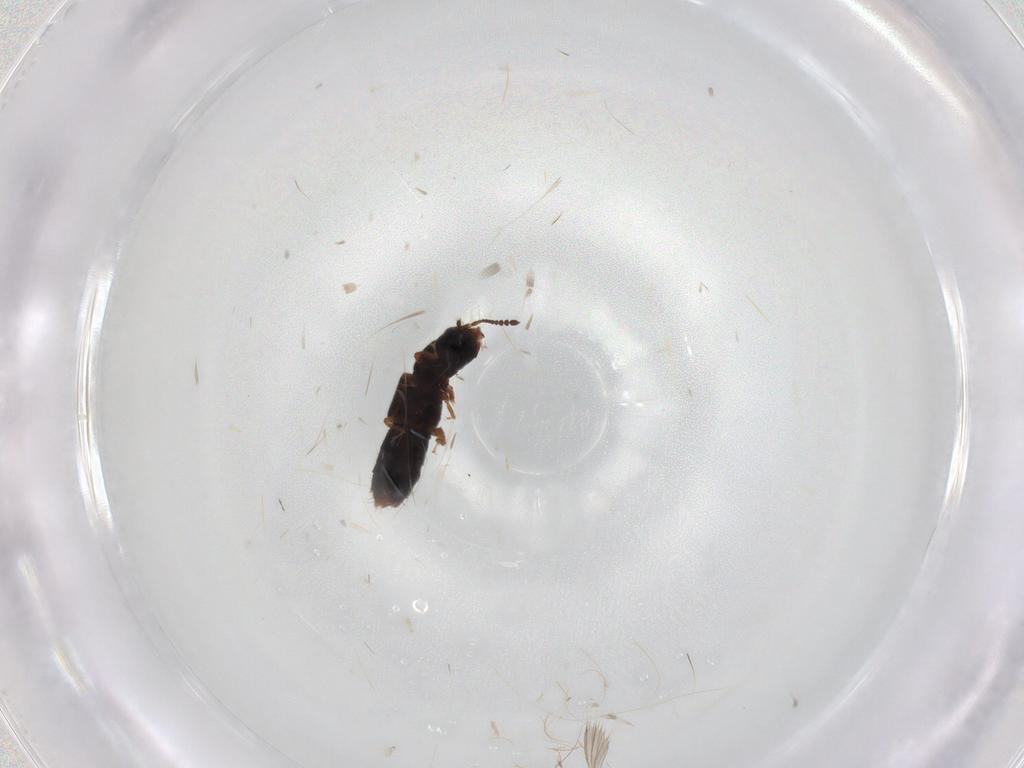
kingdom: Animalia
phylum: Arthropoda
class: Insecta
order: Coleoptera
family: Staphylinidae
